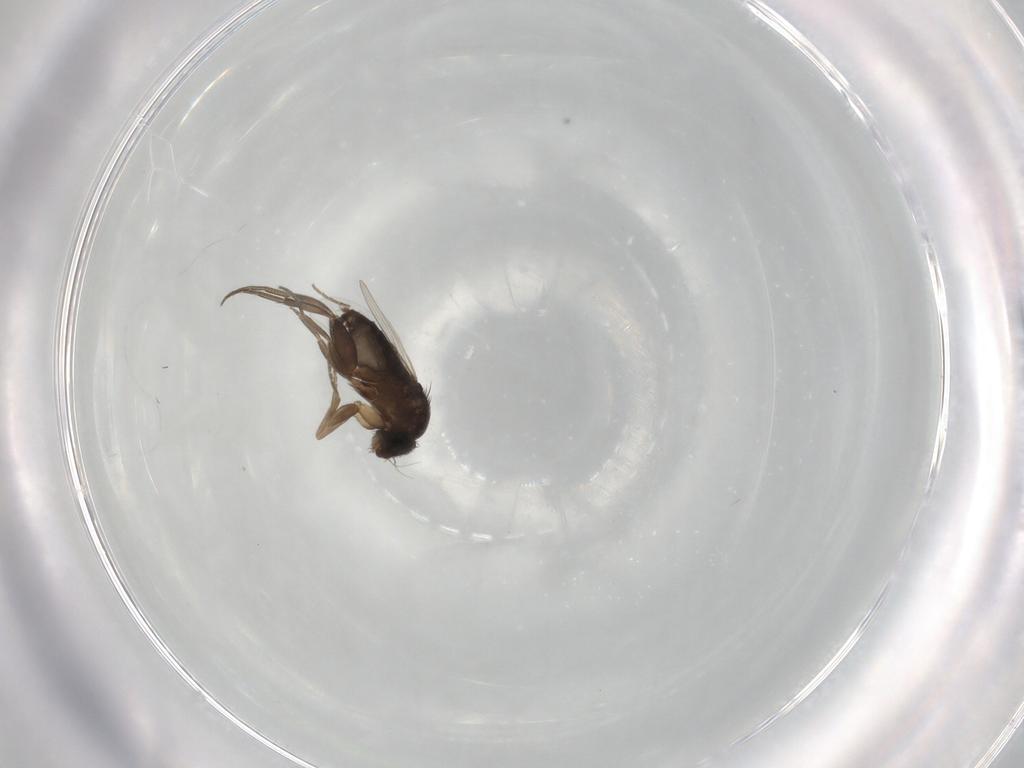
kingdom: Animalia
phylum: Arthropoda
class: Insecta
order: Diptera
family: Phoridae
